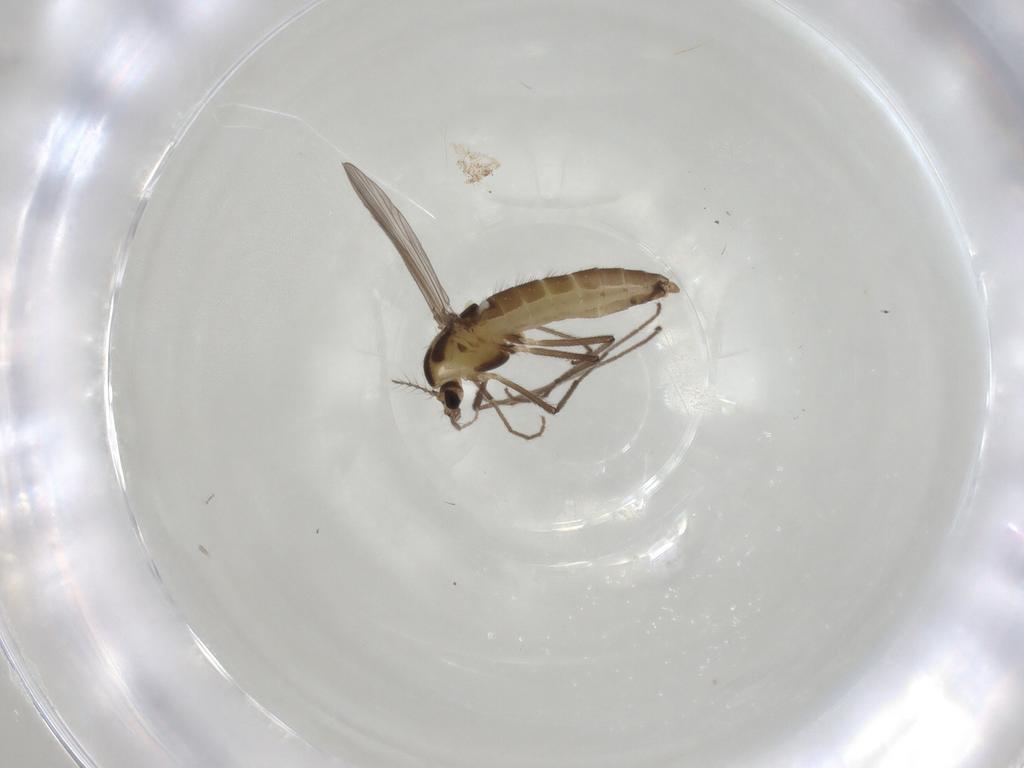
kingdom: Animalia
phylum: Arthropoda
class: Insecta
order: Diptera
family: Chironomidae
